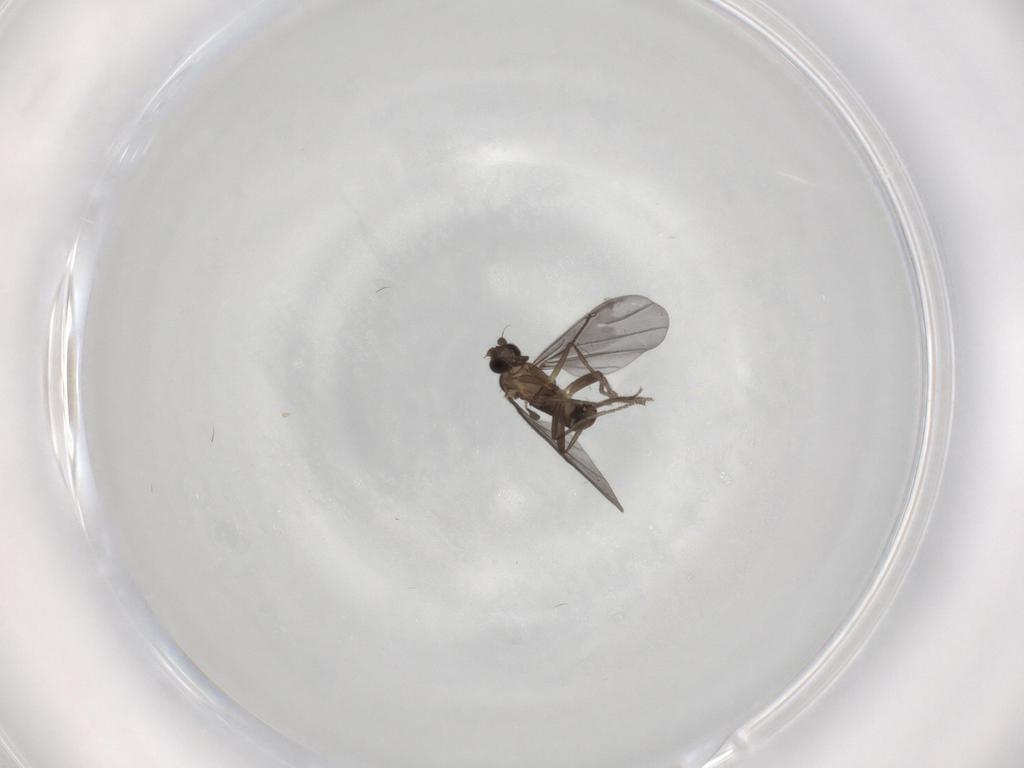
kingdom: Animalia
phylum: Arthropoda
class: Insecta
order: Diptera
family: Phoridae
